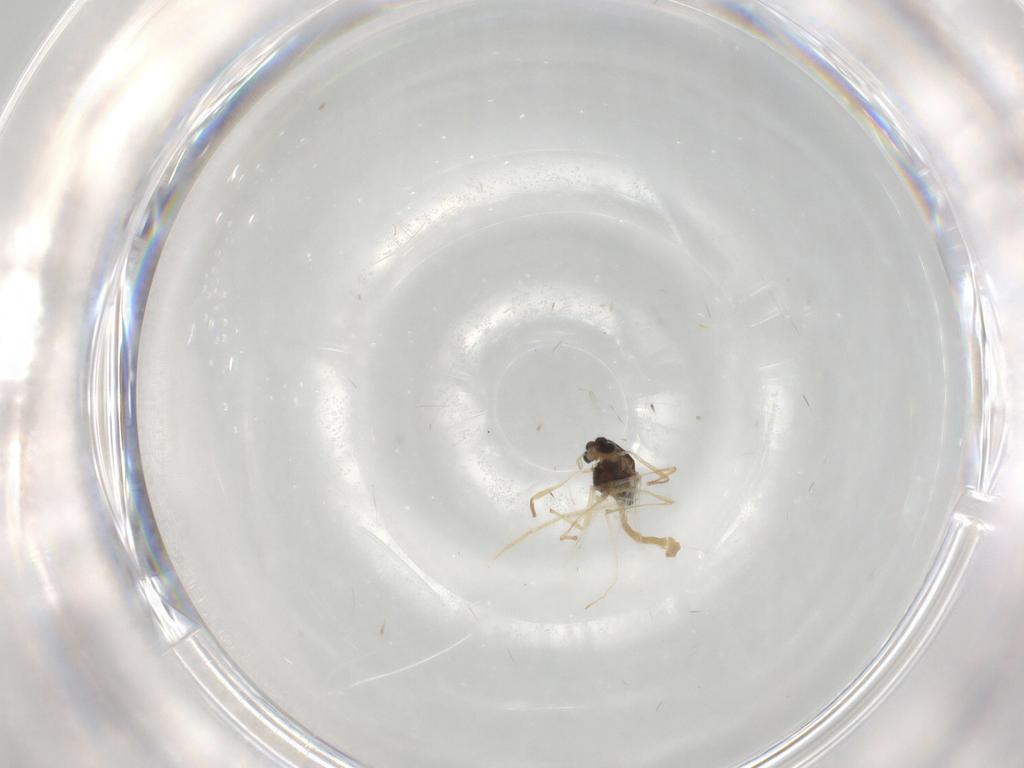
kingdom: Animalia
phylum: Arthropoda
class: Insecta
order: Diptera
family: Chironomidae
